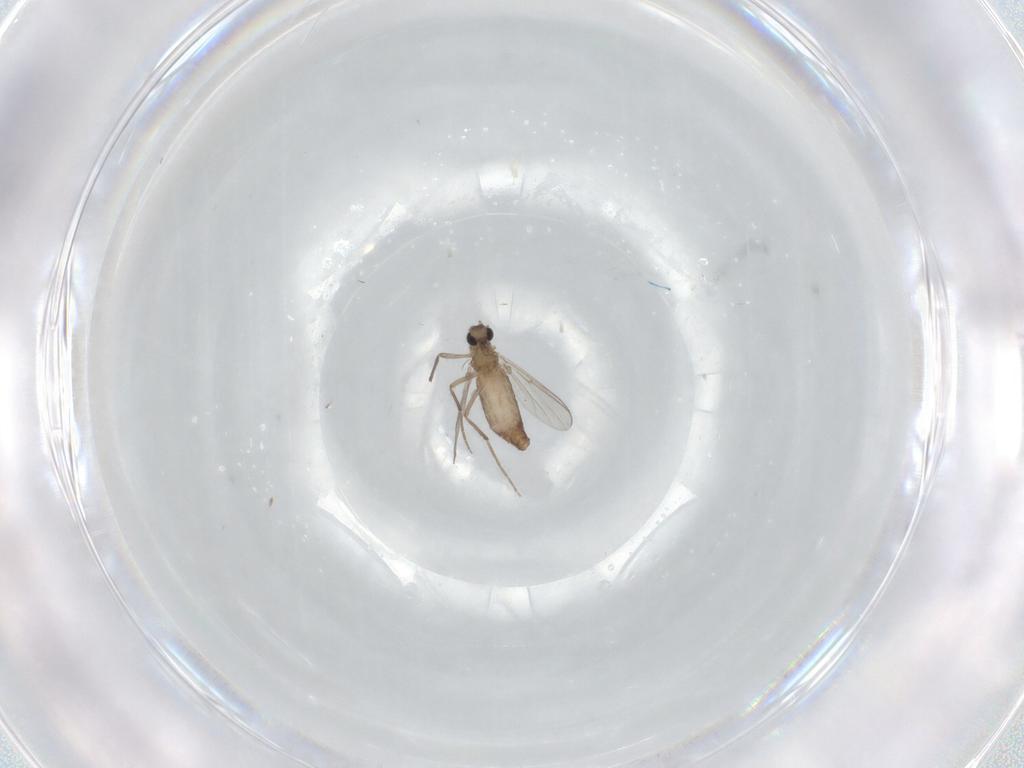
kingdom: Animalia
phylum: Arthropoda
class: Insecta
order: Diptera
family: Chironomidae
